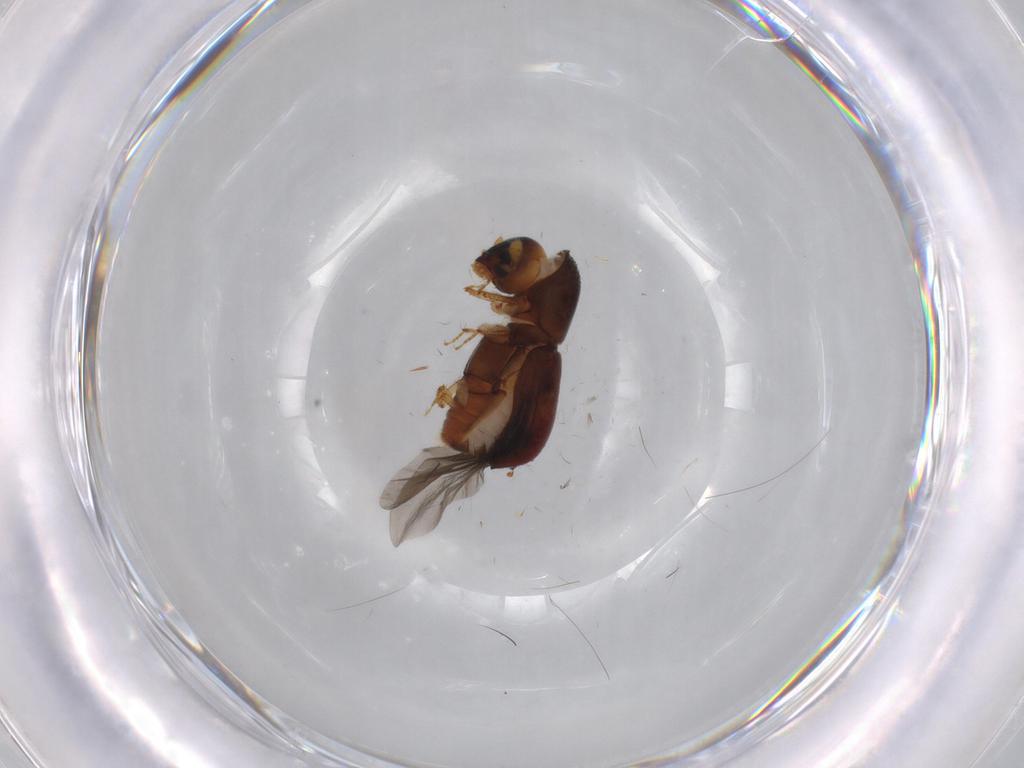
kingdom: Animalia
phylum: Arthropoda
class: Insecta
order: Coleoptera
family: Curculionidae
